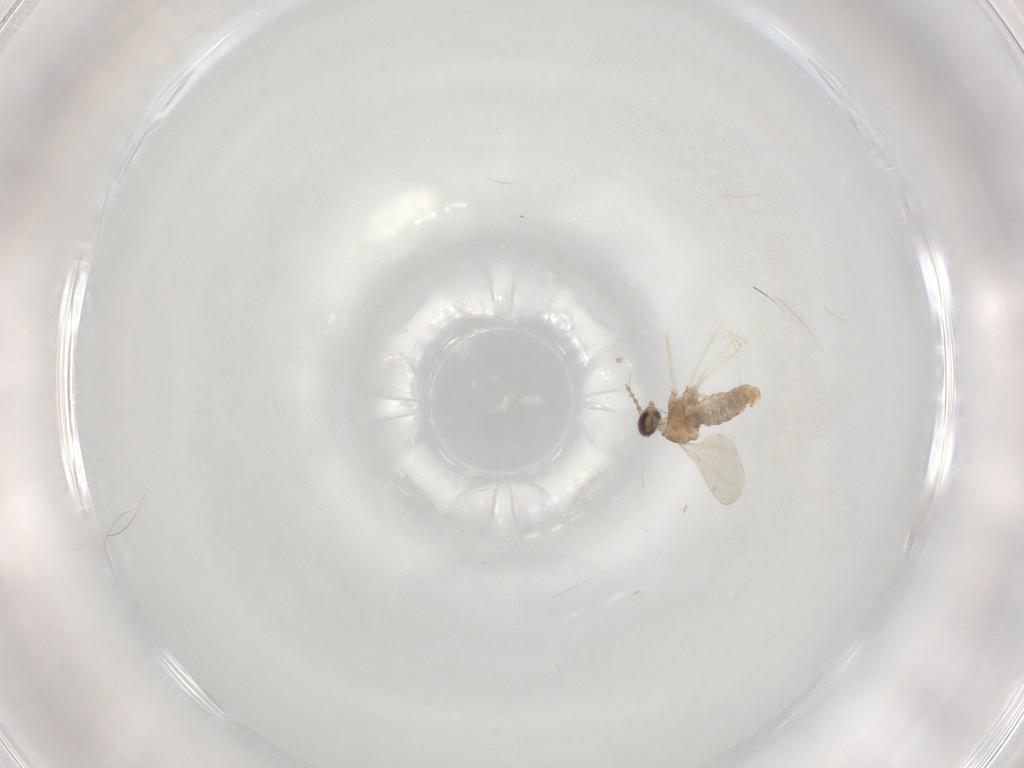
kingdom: Animalia
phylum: Arthropoda
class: Insecta
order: Diptera
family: Cecidomyiidae
